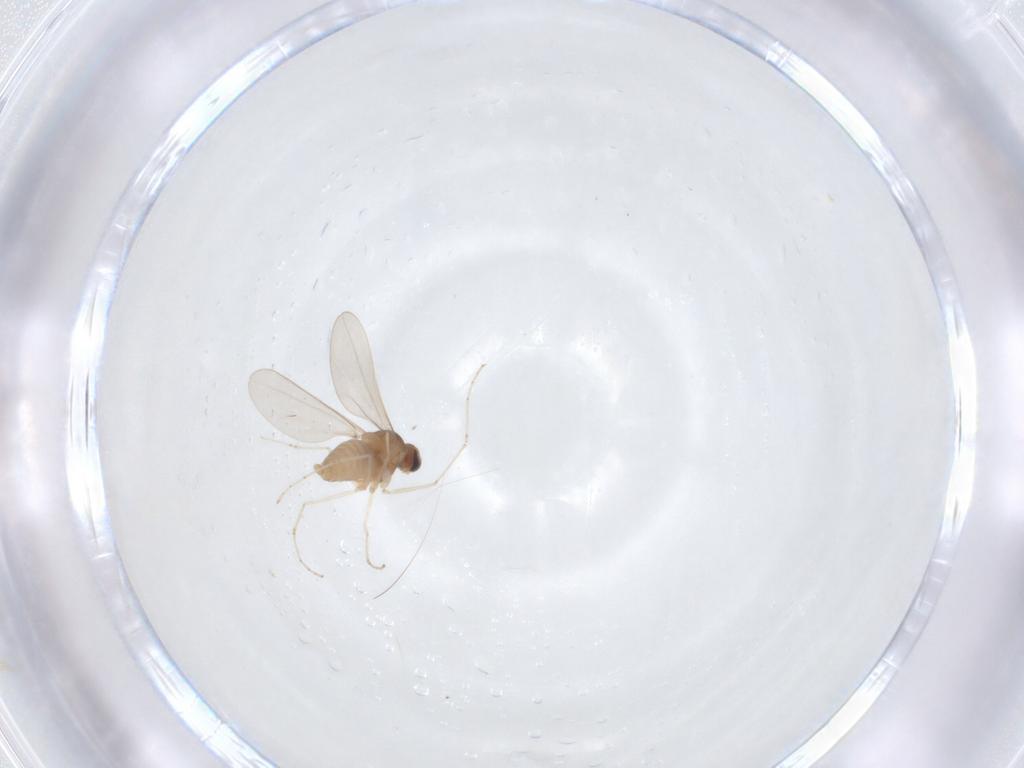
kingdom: Animalia
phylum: Arthropoda
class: Insecta
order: Diptera
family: Cecidomyiidae
